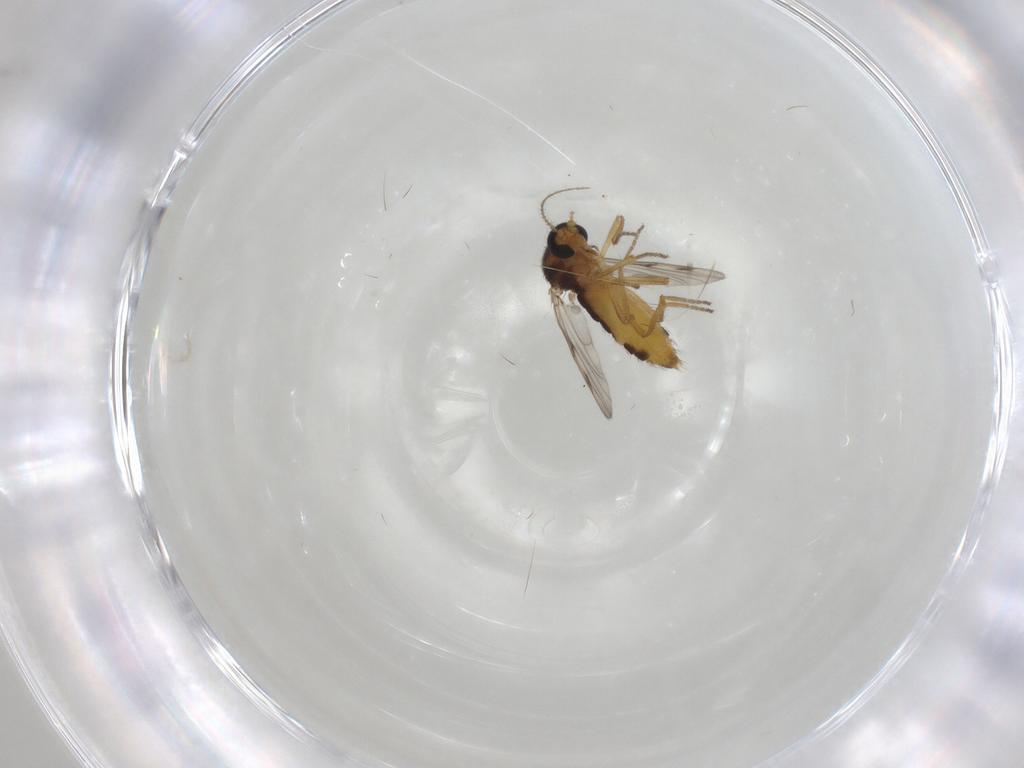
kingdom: Animalia
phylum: Arthropoda
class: Insecta
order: Diptera
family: Ceratopogonidae
